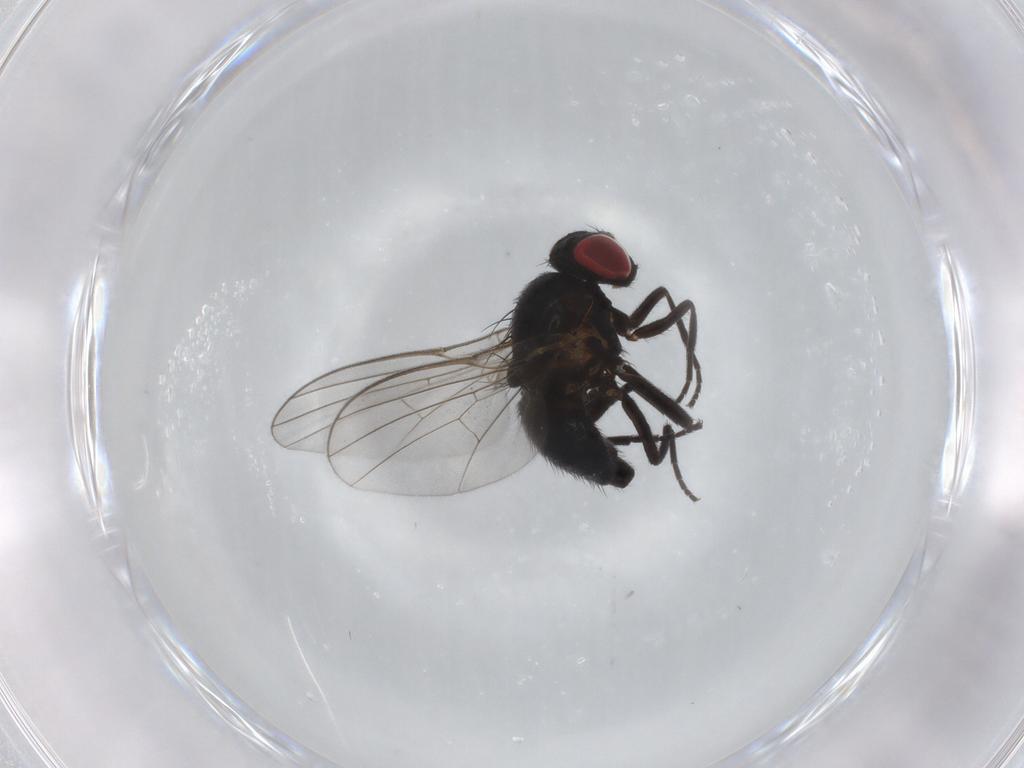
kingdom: Animalia
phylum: Arthropoda
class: Insecta
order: Diptera
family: Agromyzidae
